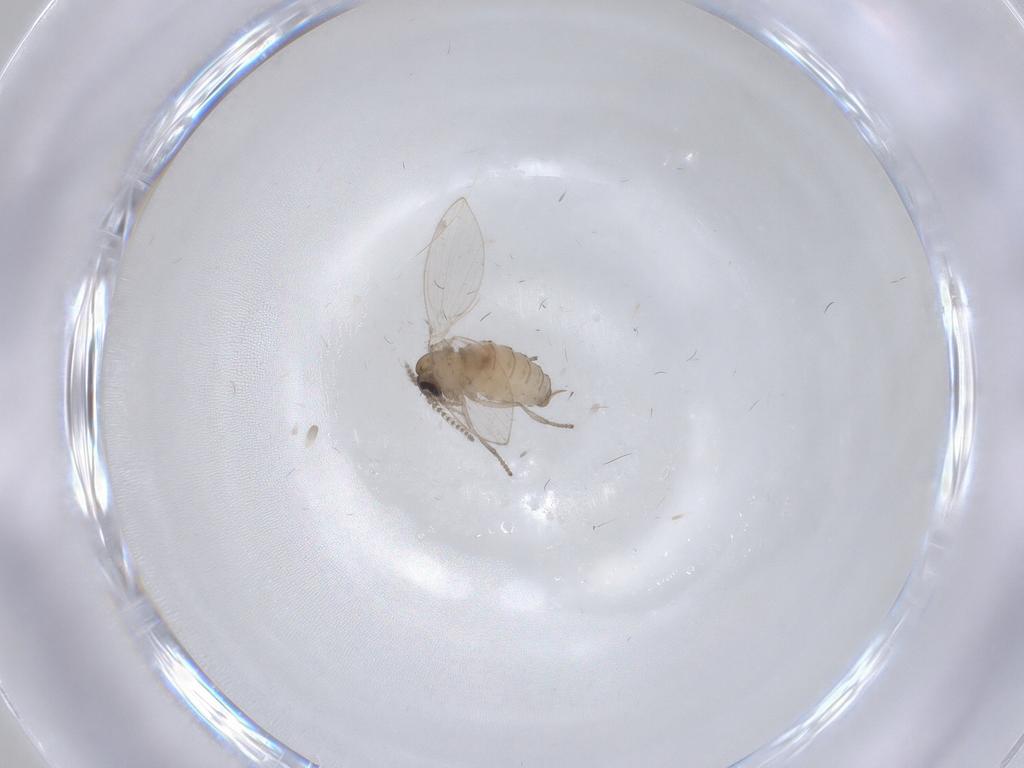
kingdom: Animalia
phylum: Arthropoda
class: Insecta
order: Diptera
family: Psychodidae
